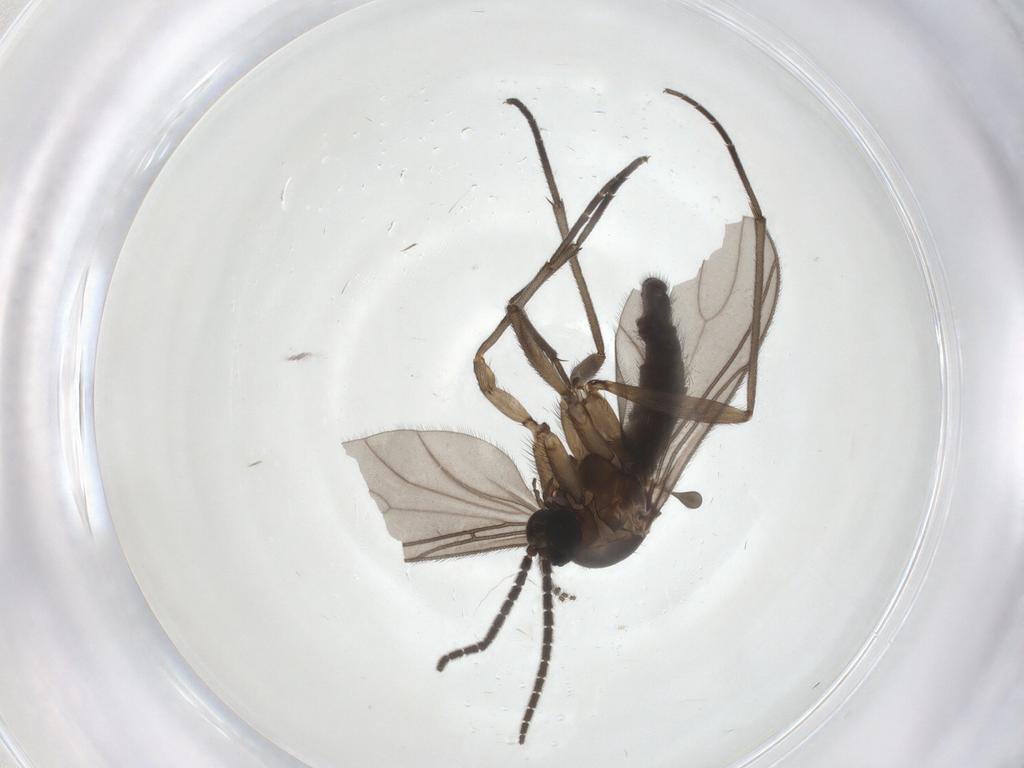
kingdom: Animalia
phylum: Arthropoda
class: Insecta
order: Diptera
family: Sciaridae
